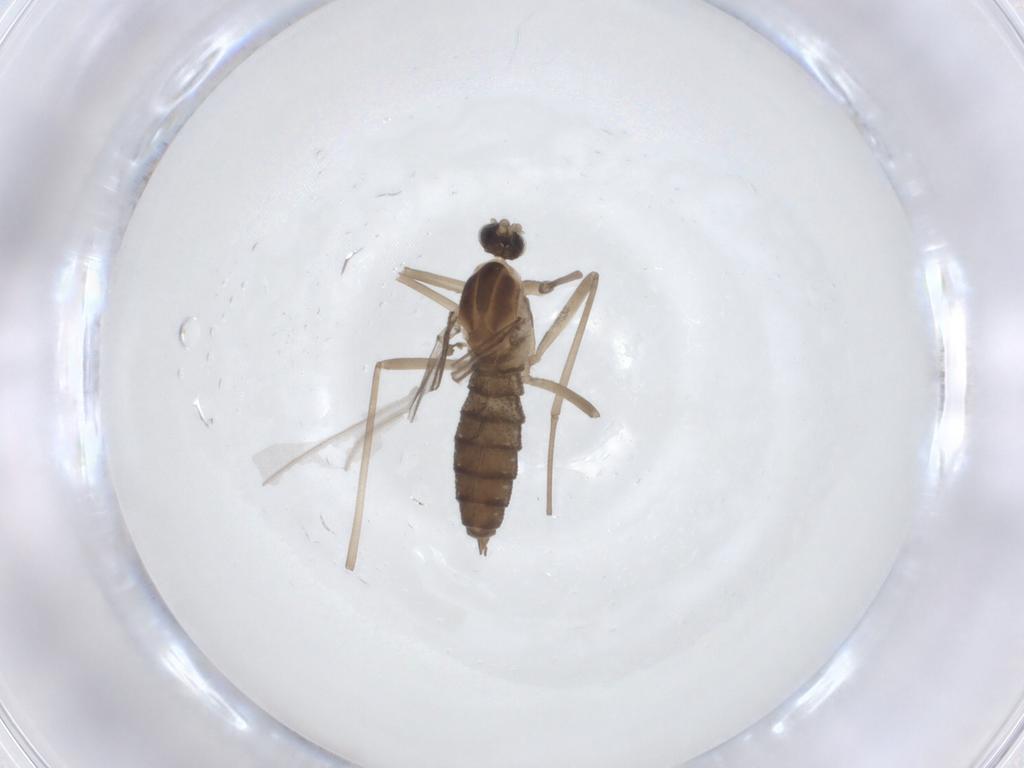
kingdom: Animalia
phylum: Arthropoda
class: Insecta
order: Diptera
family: Cecidomyiidae
